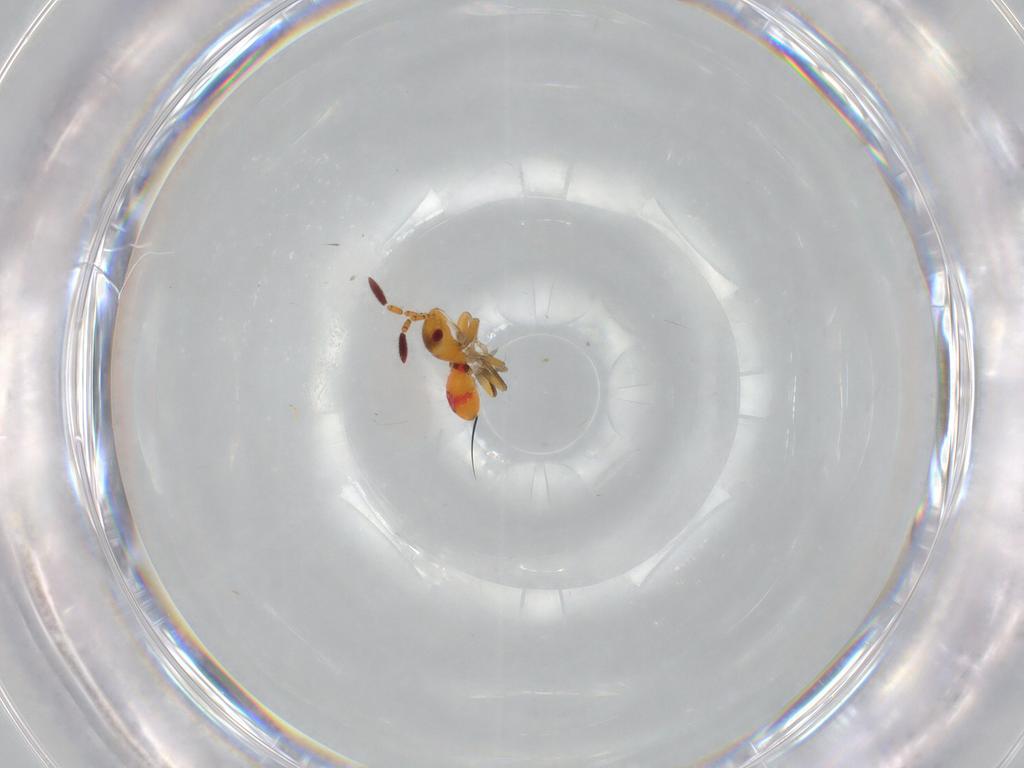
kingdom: Animalia
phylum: Arthropoda
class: Insecta
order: Hemiptera
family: Rhyparochromidae
